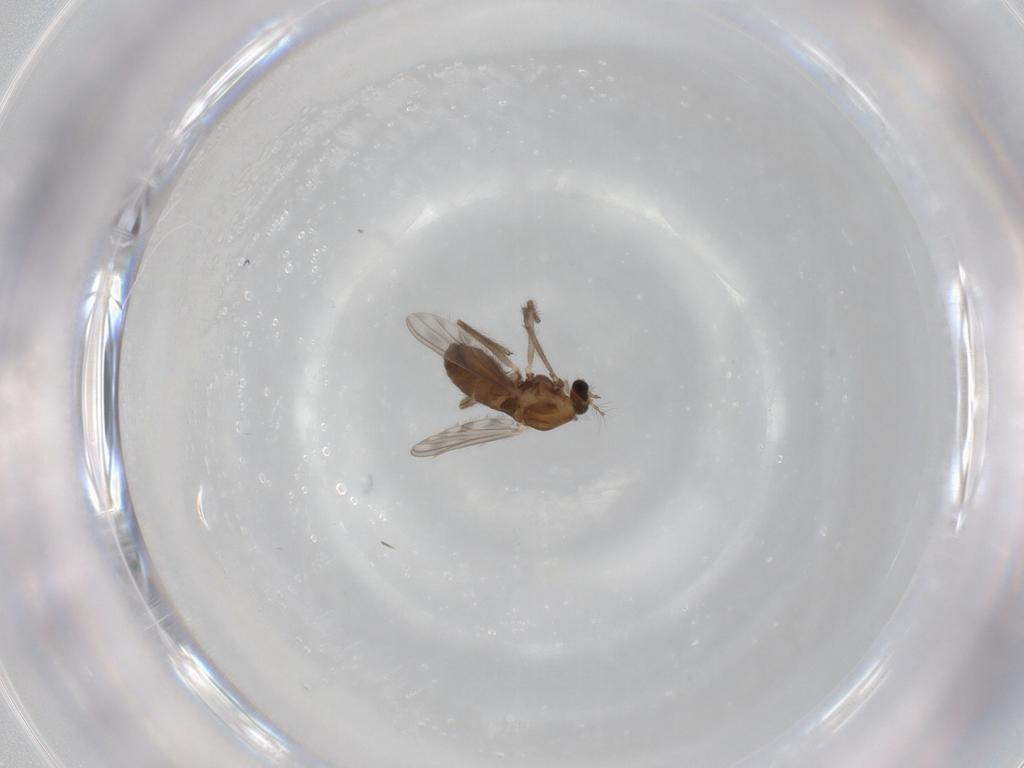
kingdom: Animalia
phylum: Arthropoda
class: Insecta
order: Diptera
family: Chironomidae
